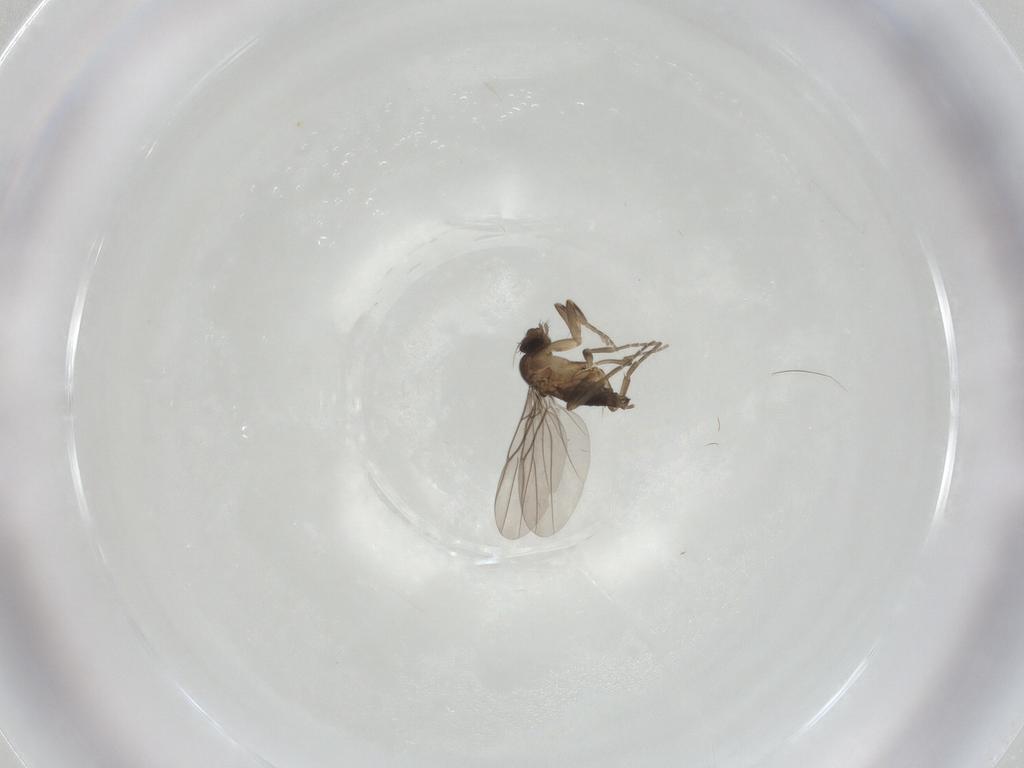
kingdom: Animalia
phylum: Arthropoda
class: Insecta
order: Diptera
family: Phoridae
